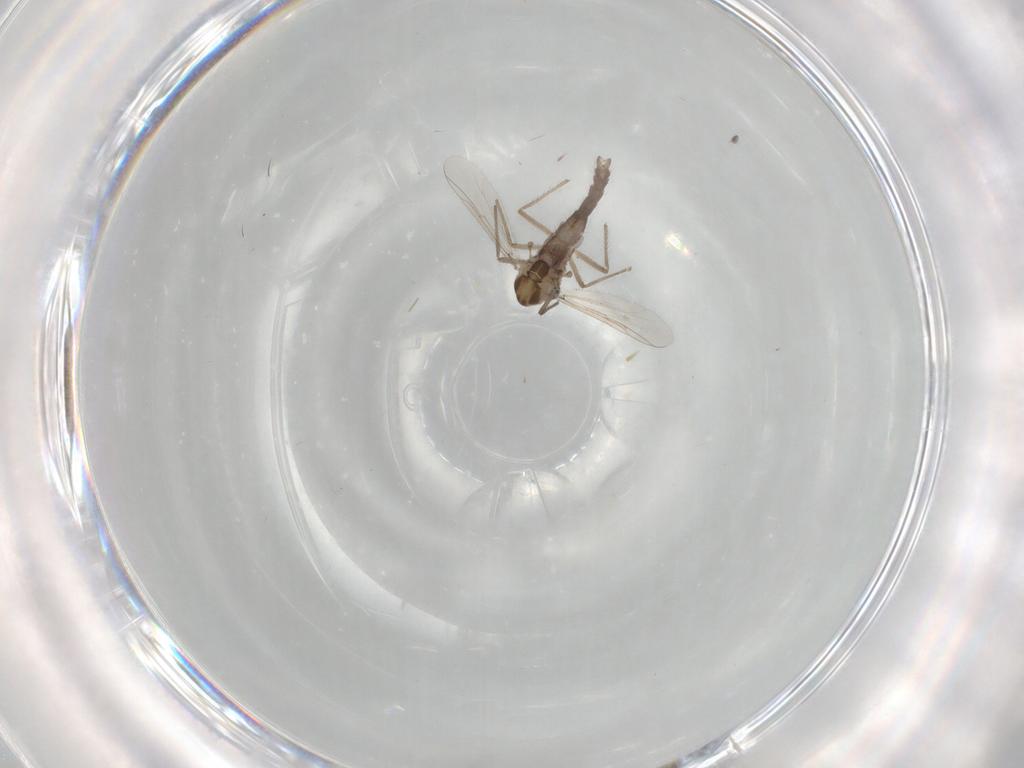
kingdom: Animalia
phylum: Arthropoda
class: Insecta
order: Diptera
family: Chironomidae
